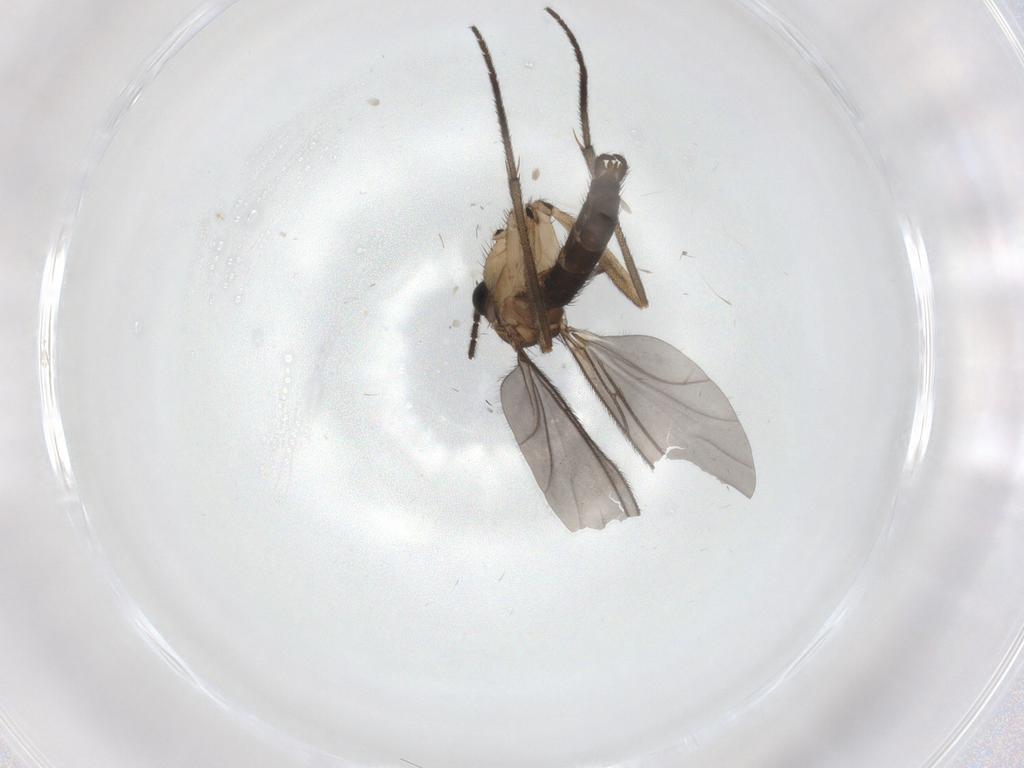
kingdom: Animalia
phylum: Arthropoda
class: Insecta
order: Diptera
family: Chironomidae
